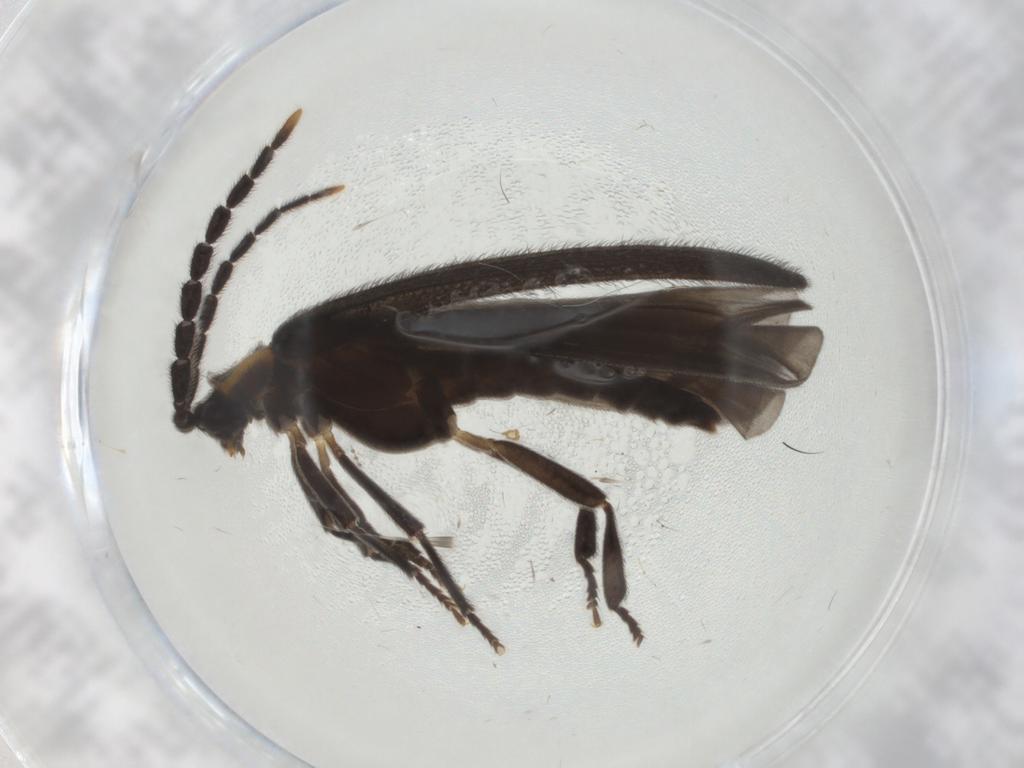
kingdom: Animalia
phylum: Arthropoda
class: Insecta
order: Coleoptera
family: Lycidae
